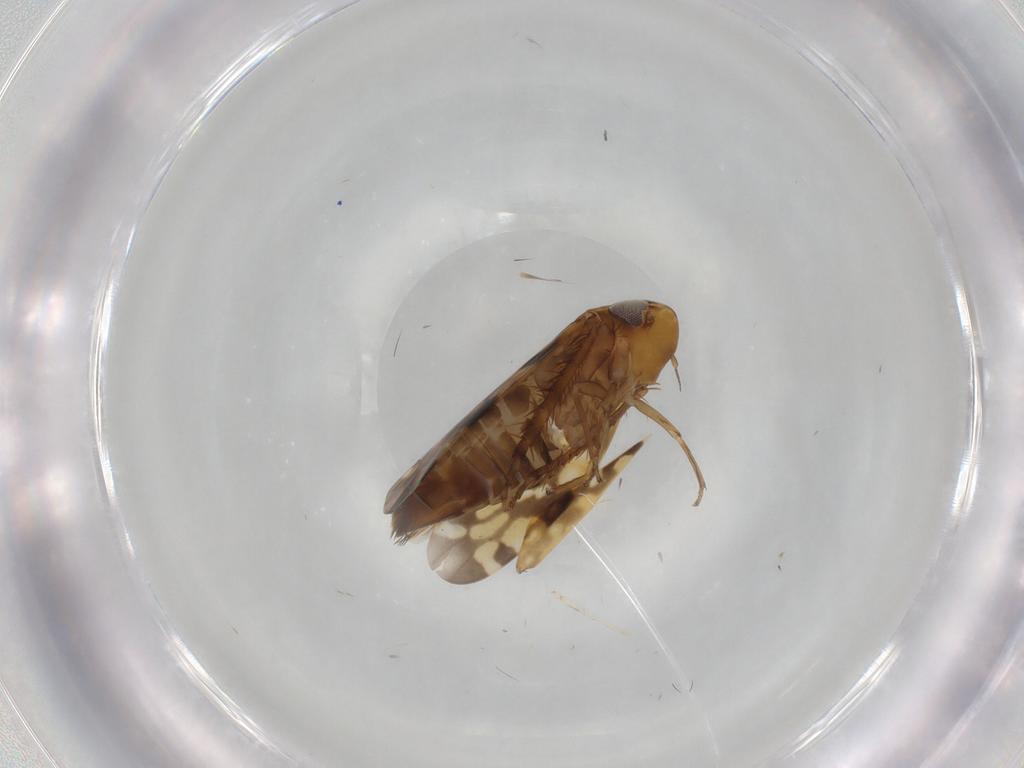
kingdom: Animalia
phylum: Arthropoda
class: Insecta
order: Hemiptera
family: Cicadellidae
